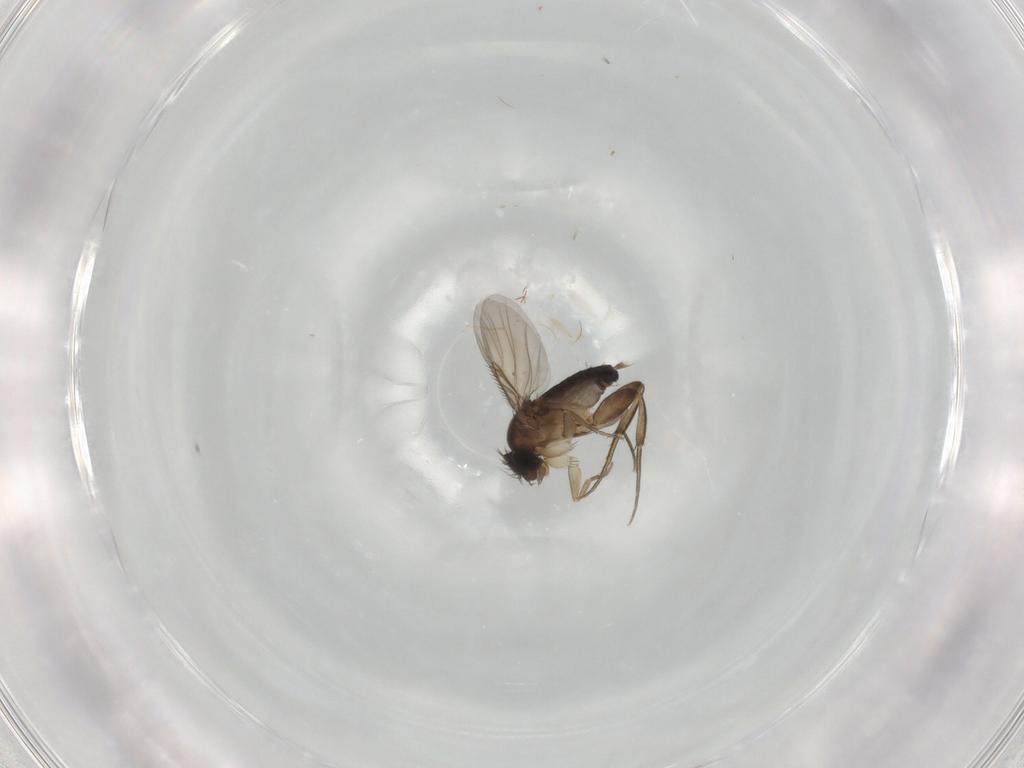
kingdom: Animalia
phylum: Arthropoda
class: Insecta
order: Diptera
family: Phoridae
